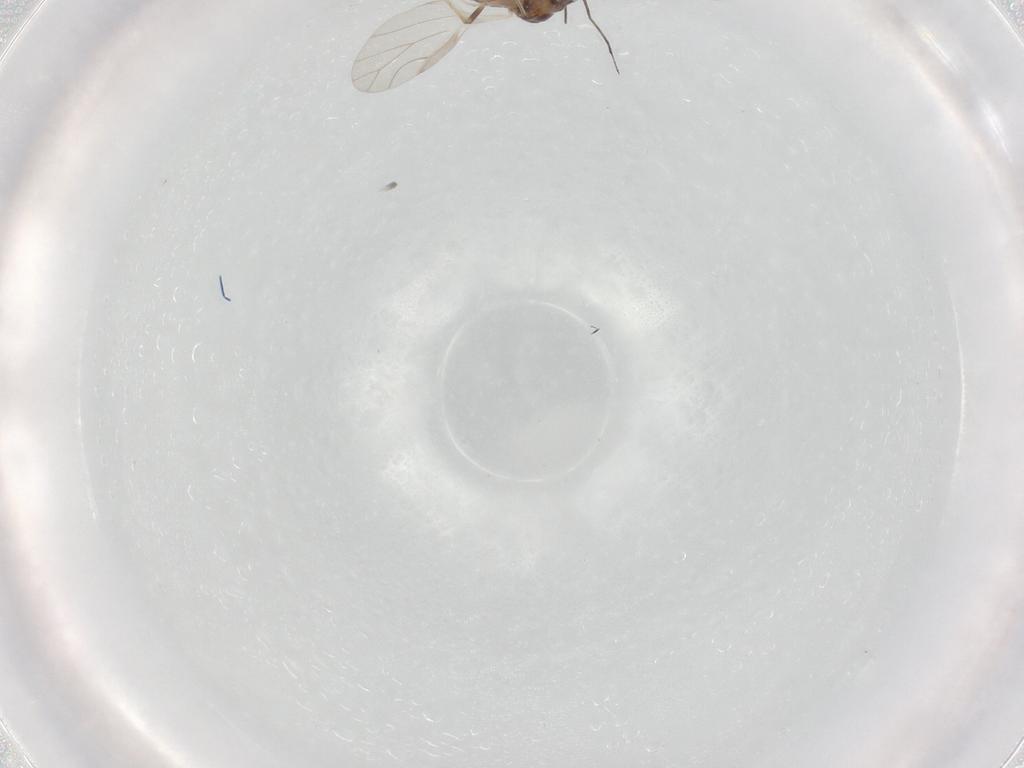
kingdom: Animalia
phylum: Arthropoda
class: Insecta
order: Hemiptera
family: Aphididae
